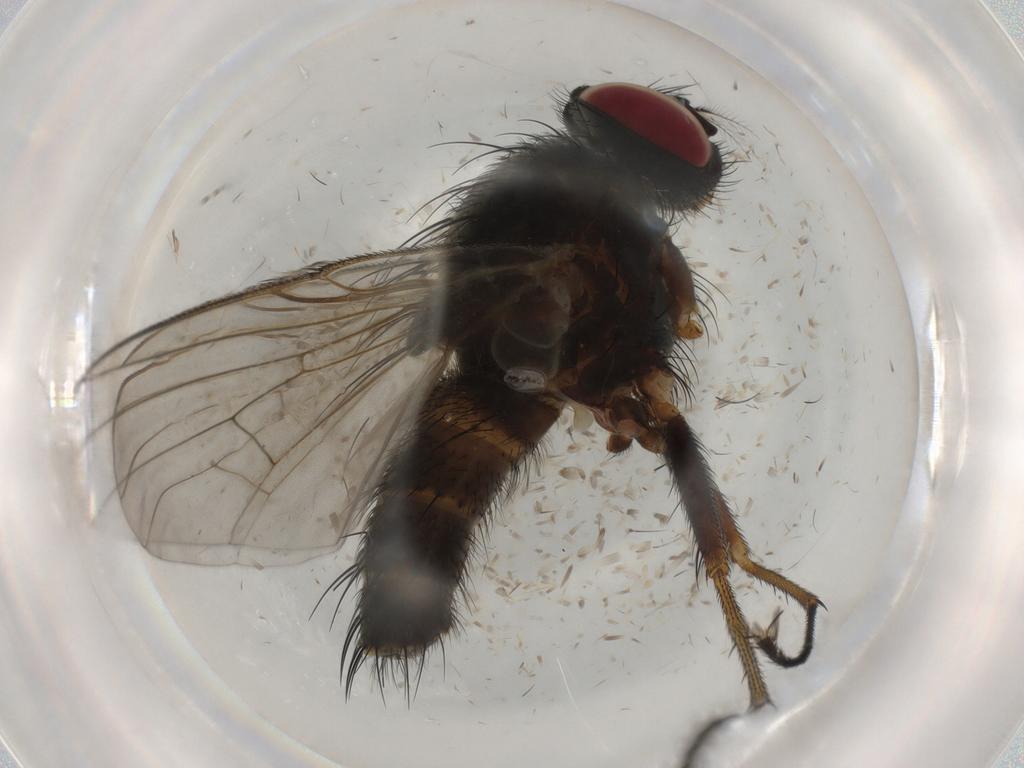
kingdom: Animalia
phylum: Arthropoda
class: Insecta
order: Diptera
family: Muscidae
